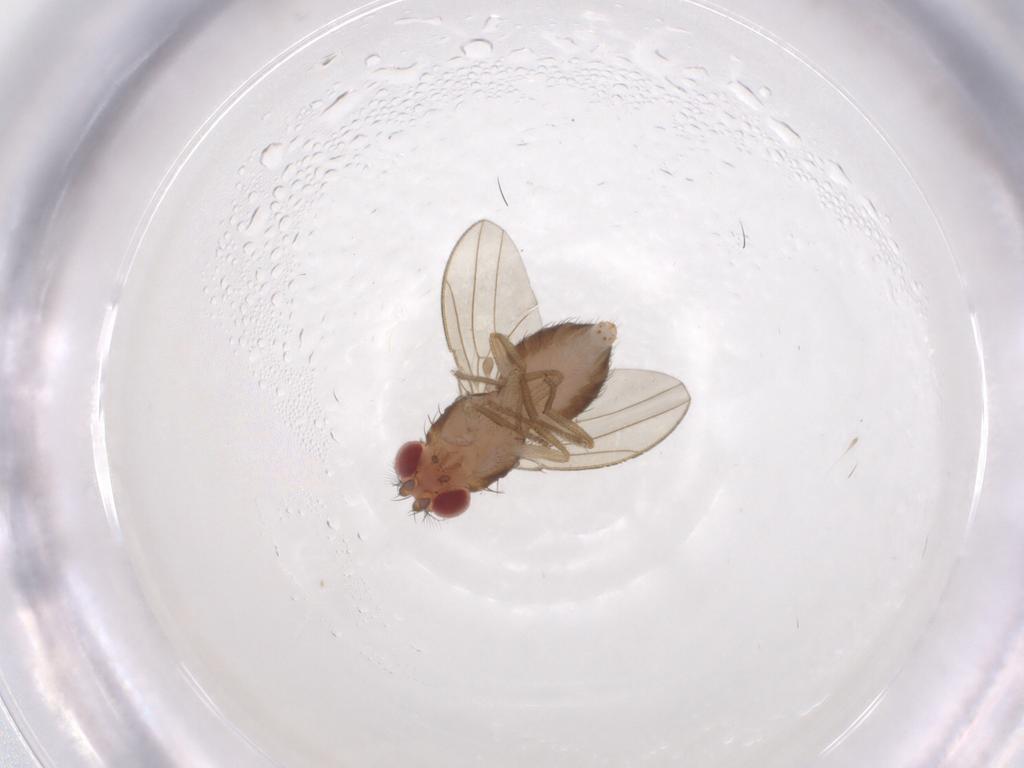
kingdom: Animalia
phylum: Arthropoda
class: Insecta
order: Diptera
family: Drosophilidae
